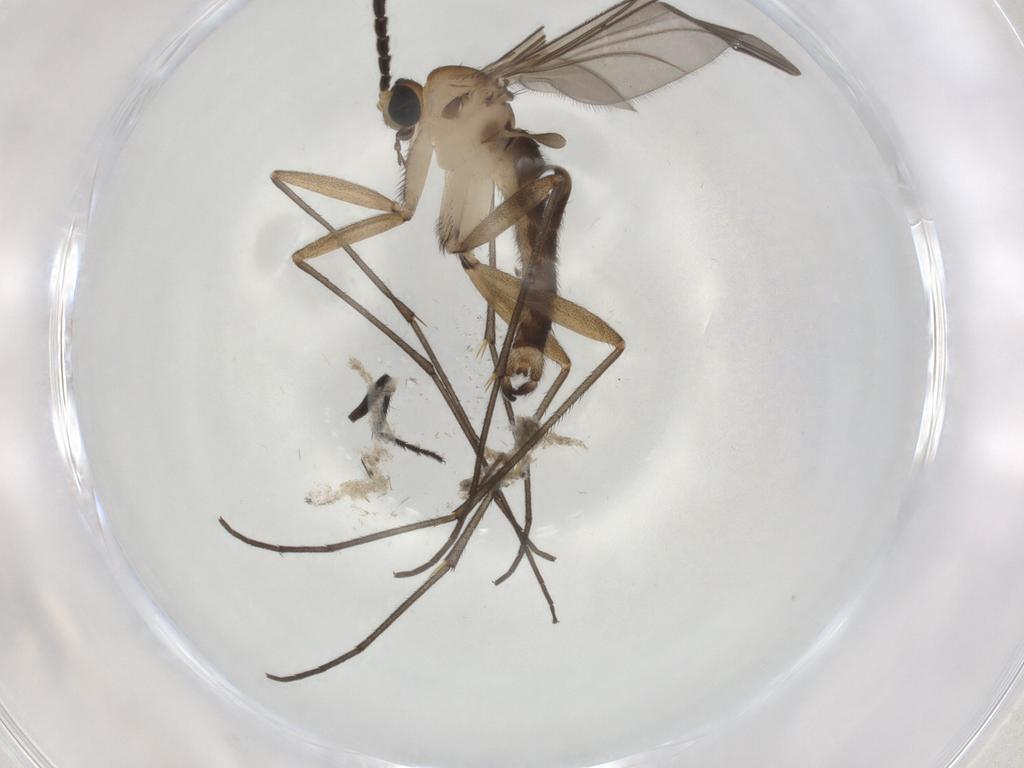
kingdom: Animalia
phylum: Arthropoda
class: Insecta
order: Diptera
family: Sciaridae
